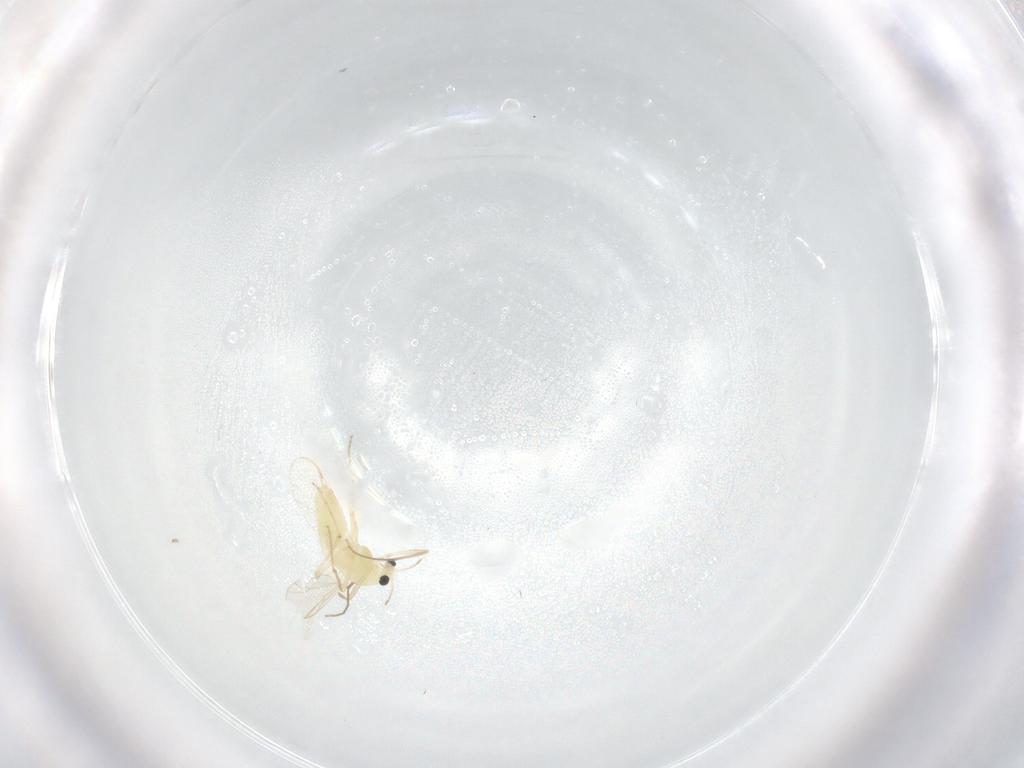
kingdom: Animalia
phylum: Arthropoda
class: Insecta
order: Diptera
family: Chironomidae
